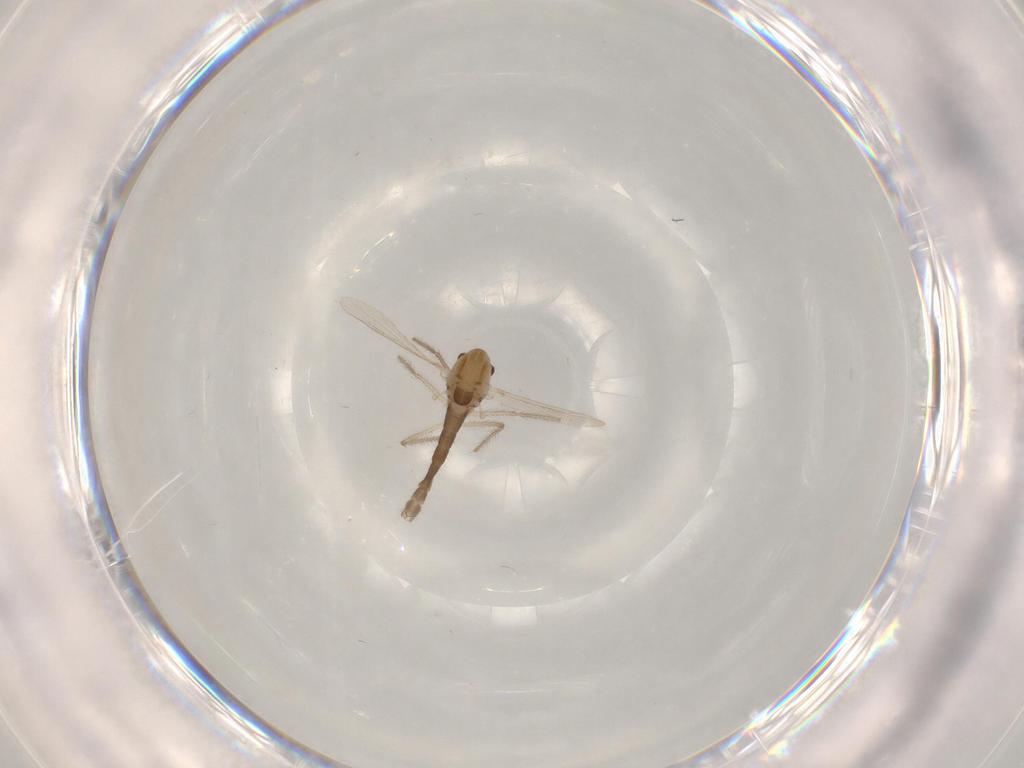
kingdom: Animalia
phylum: Arthropoda
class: Insecta
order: Diptera
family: Chironomidae
